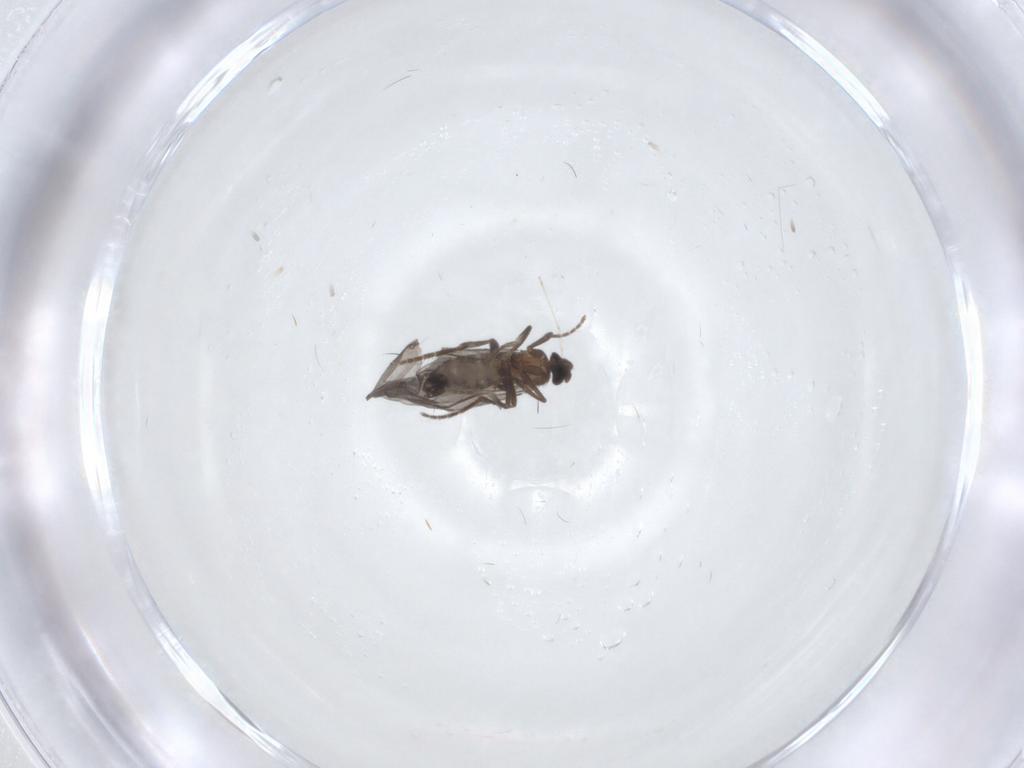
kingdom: Animalia
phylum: Arthropoda
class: Insecta
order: Diptera
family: Phoridae
